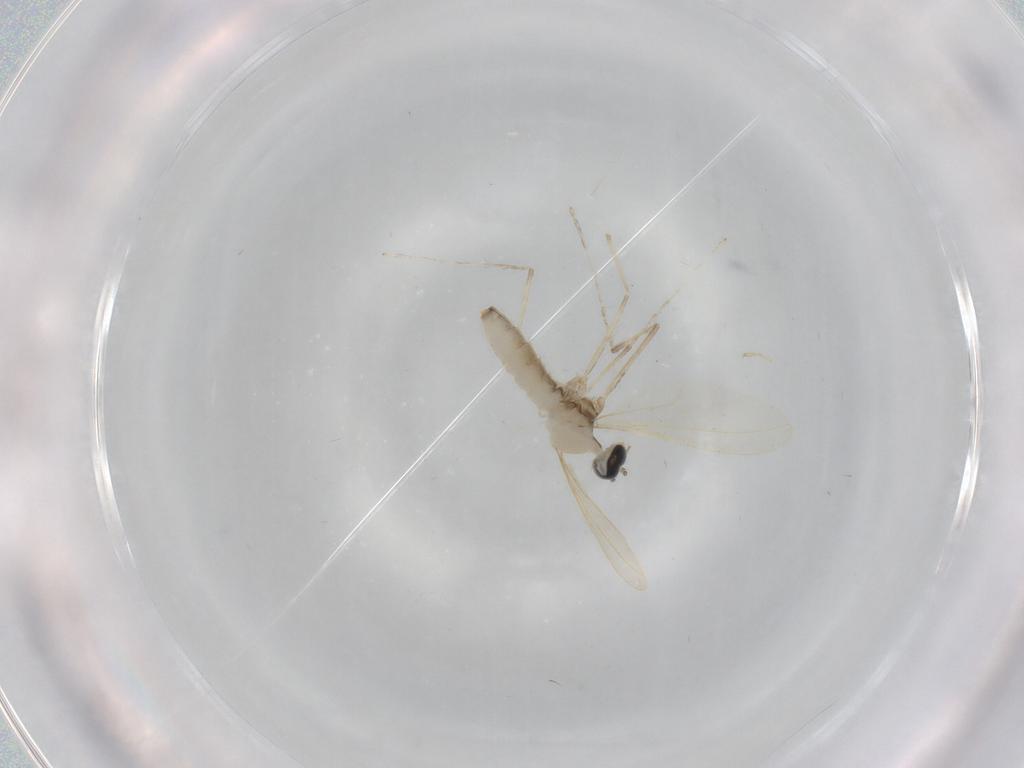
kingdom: Animalia
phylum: Arthropoda
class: Insecta
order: Diptera
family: Cecidomyiidae
